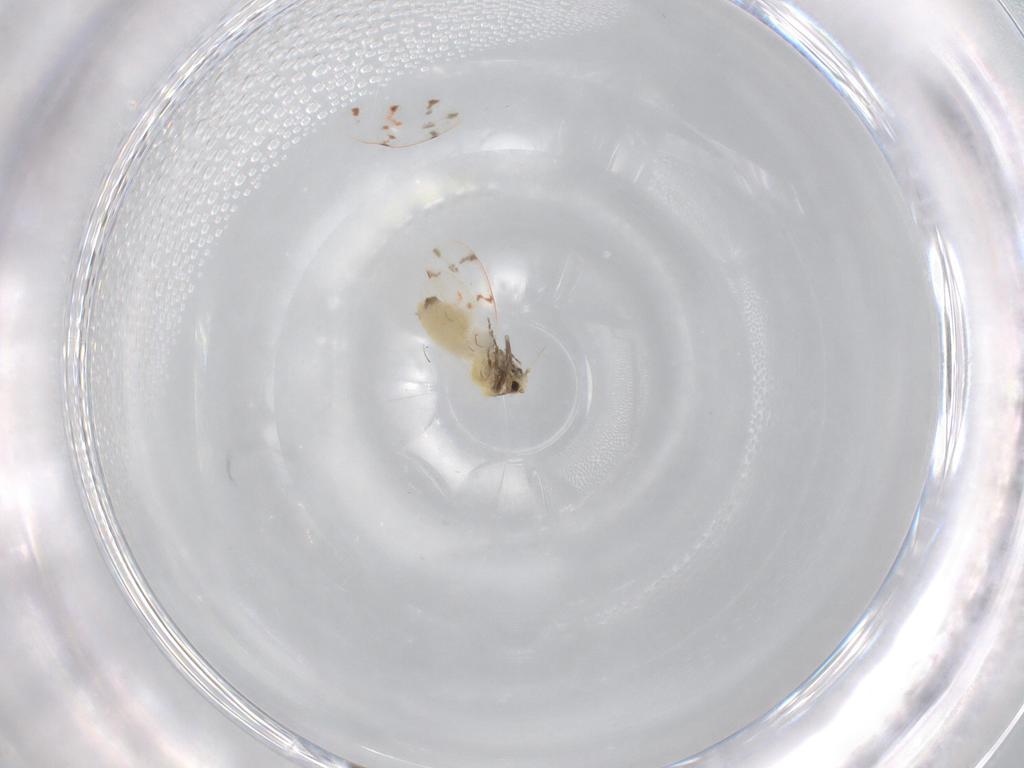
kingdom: Animalia
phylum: Arthropoda
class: Insecta
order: Hemiptera
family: Aleyrodidae
